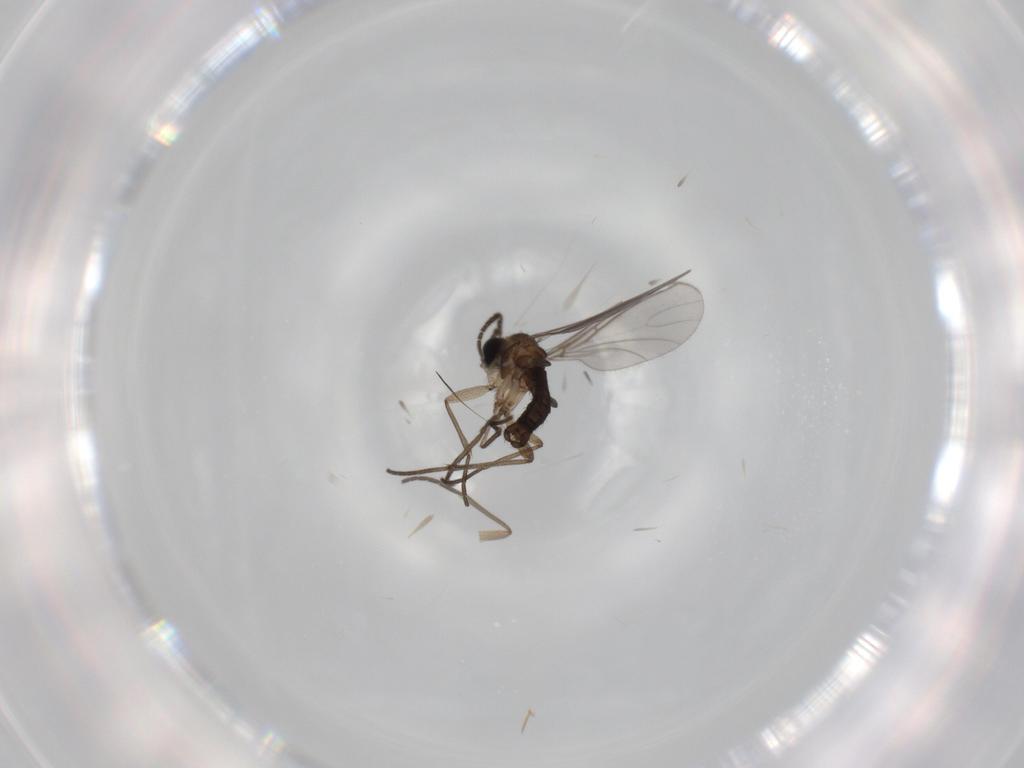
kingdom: Animalia
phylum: Arthropoda
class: Insecta
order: Diptera
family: Sciaridae
